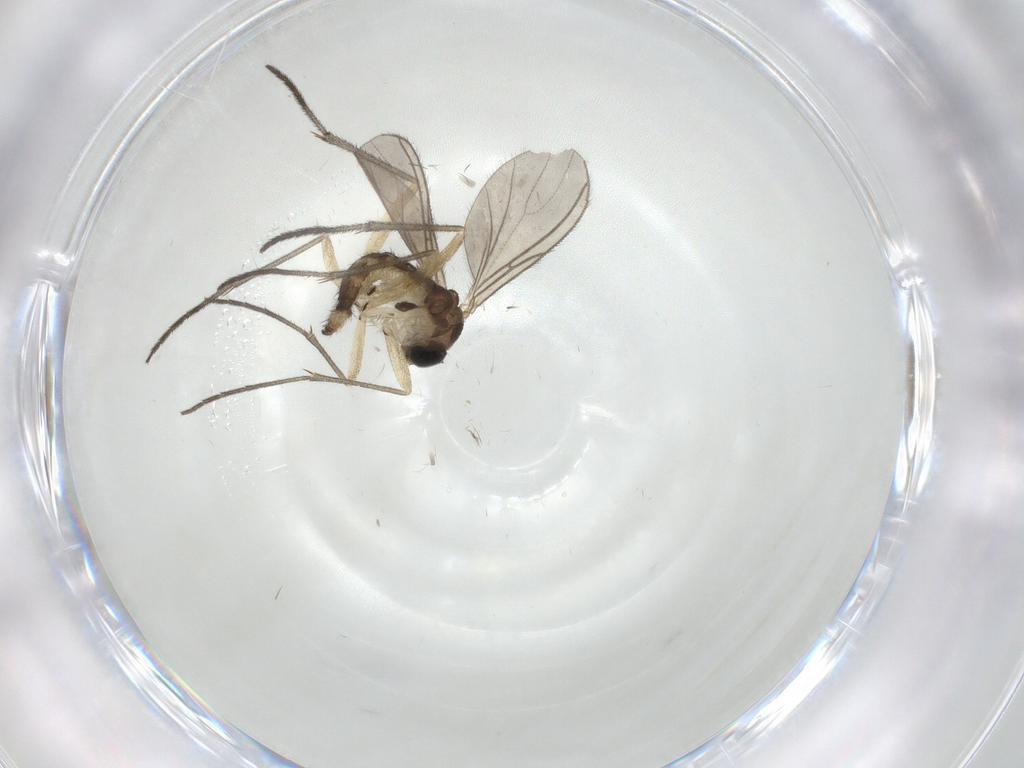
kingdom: Animalia
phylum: Arthropoda
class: Insecta
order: Diptera
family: Sciaridae
